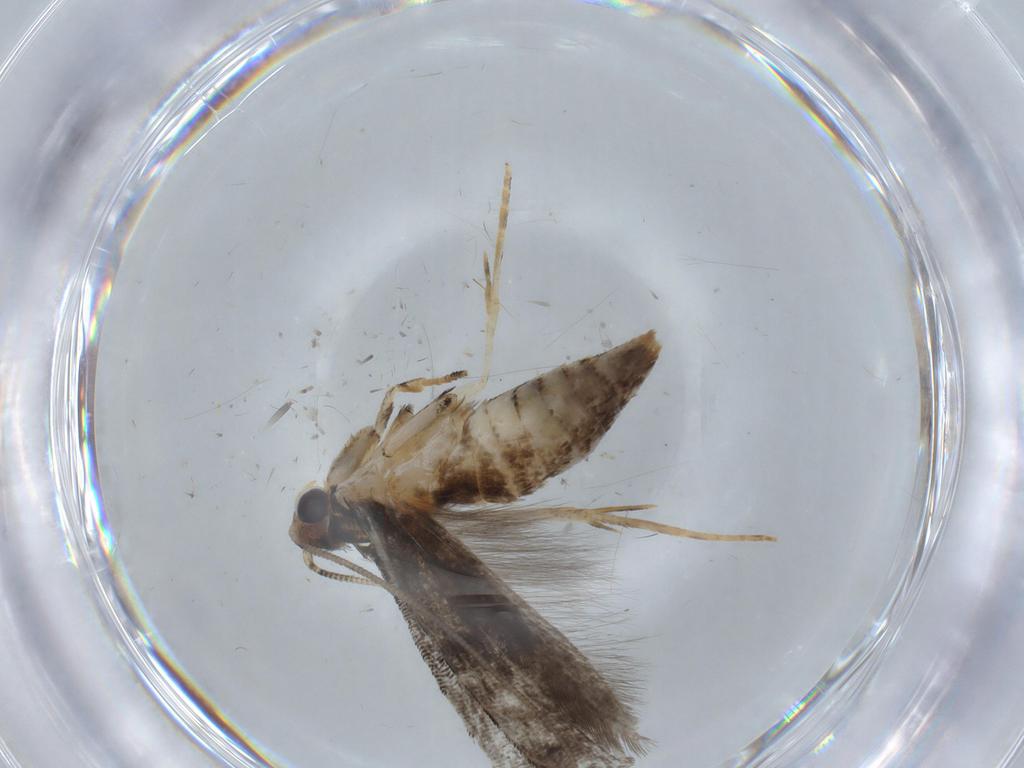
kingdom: Animalia
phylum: Arthropoda
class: Insecta
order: Lepidoptera
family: Tineidae
